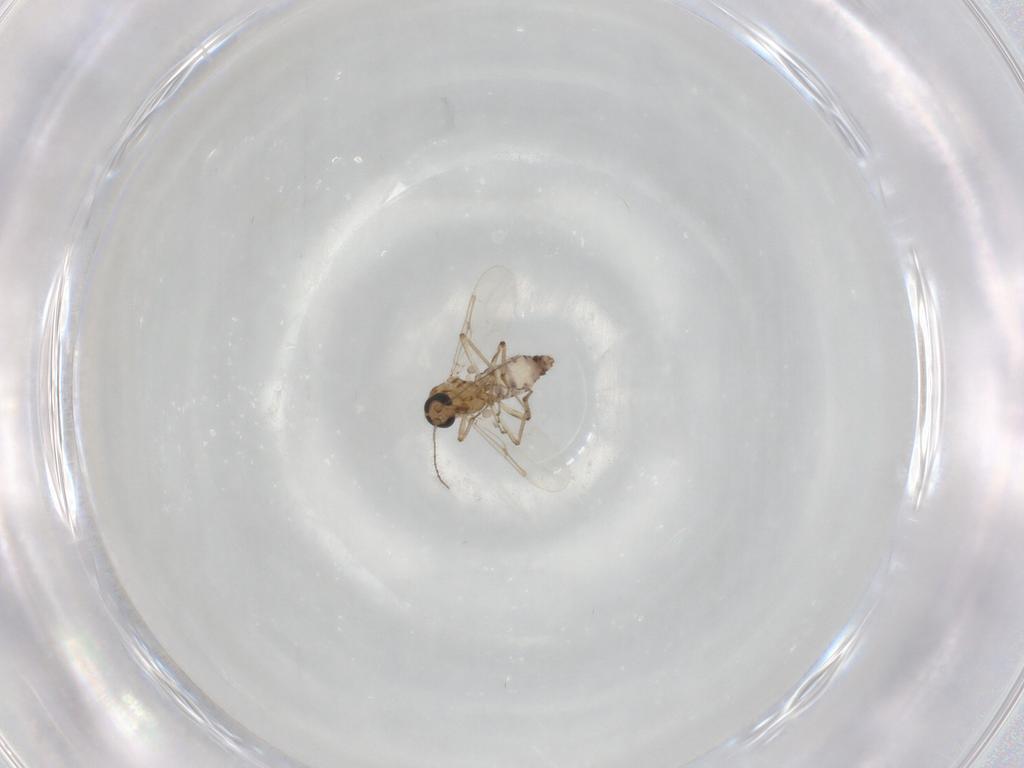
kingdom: Animalia
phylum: Arthropoda
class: Insecta
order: Diptera
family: Ceratopogonidae
